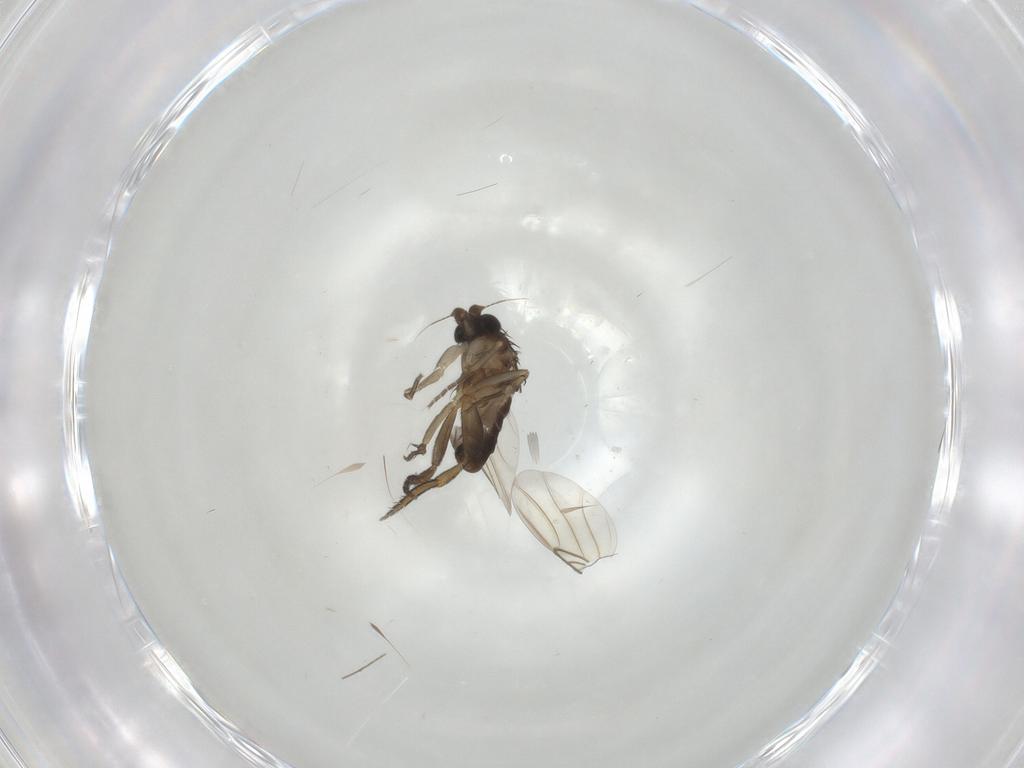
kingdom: Animalia
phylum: Arthropoda
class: Insecta
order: Diptera
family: Phoridae
